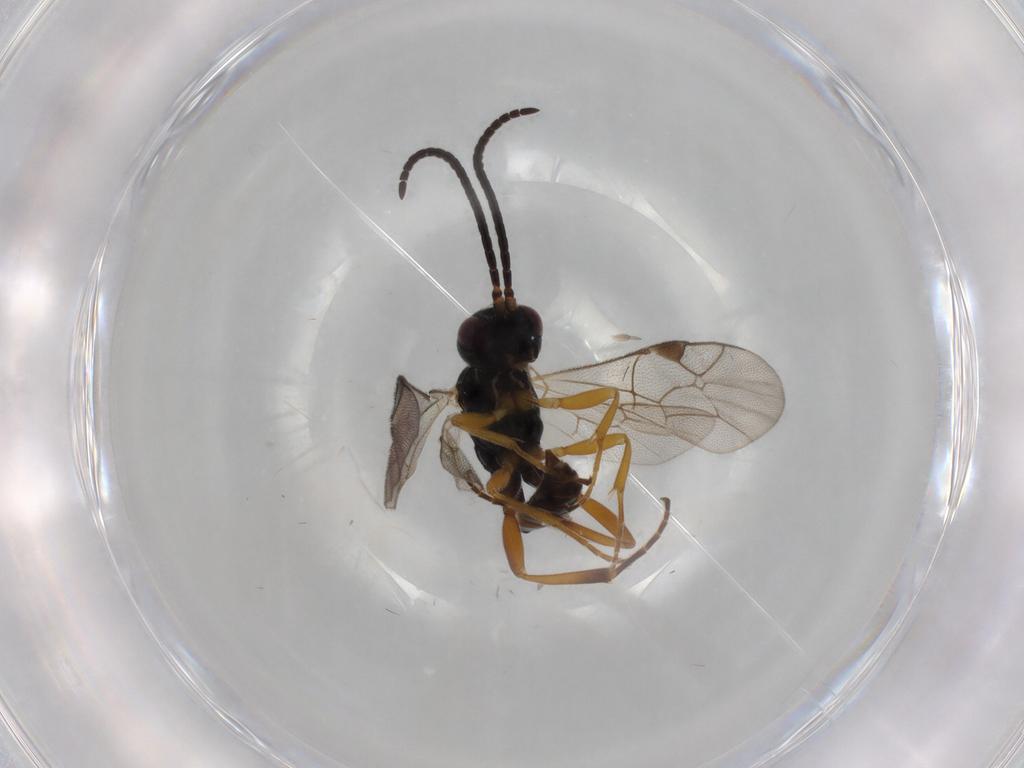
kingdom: Animalia
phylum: Arthropoda
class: Insecta
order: Hymenoptera
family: Ichneumonidae
